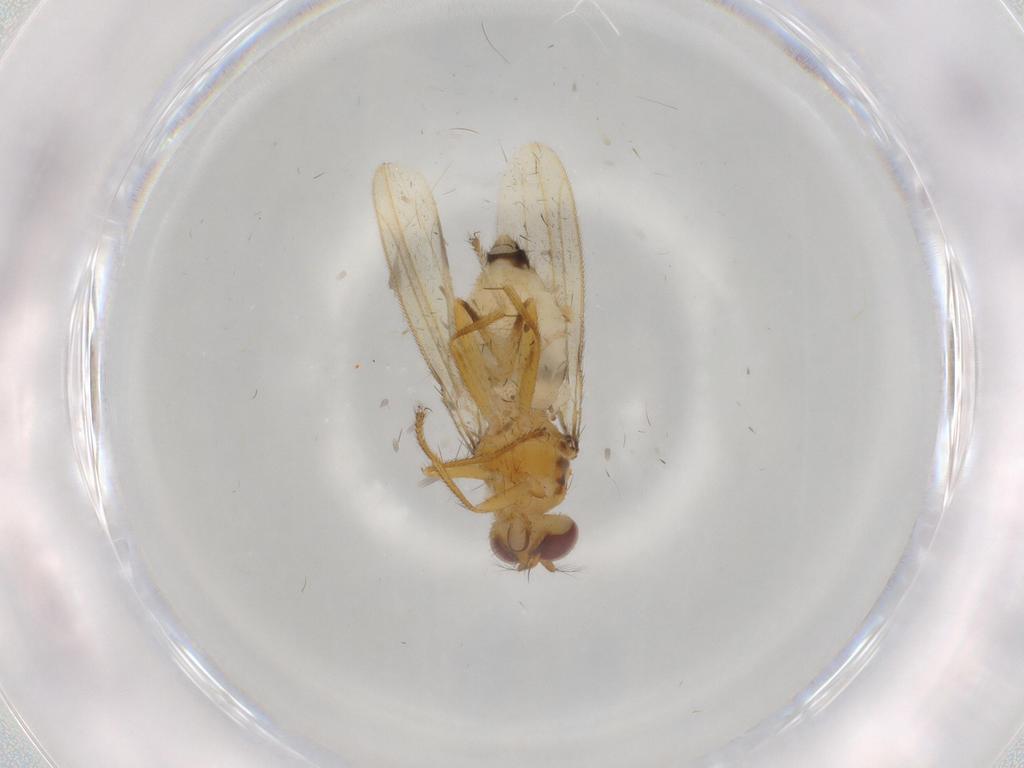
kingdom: Animalia
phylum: Arthropoda
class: Insecta
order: Diptera
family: Periscelididae
